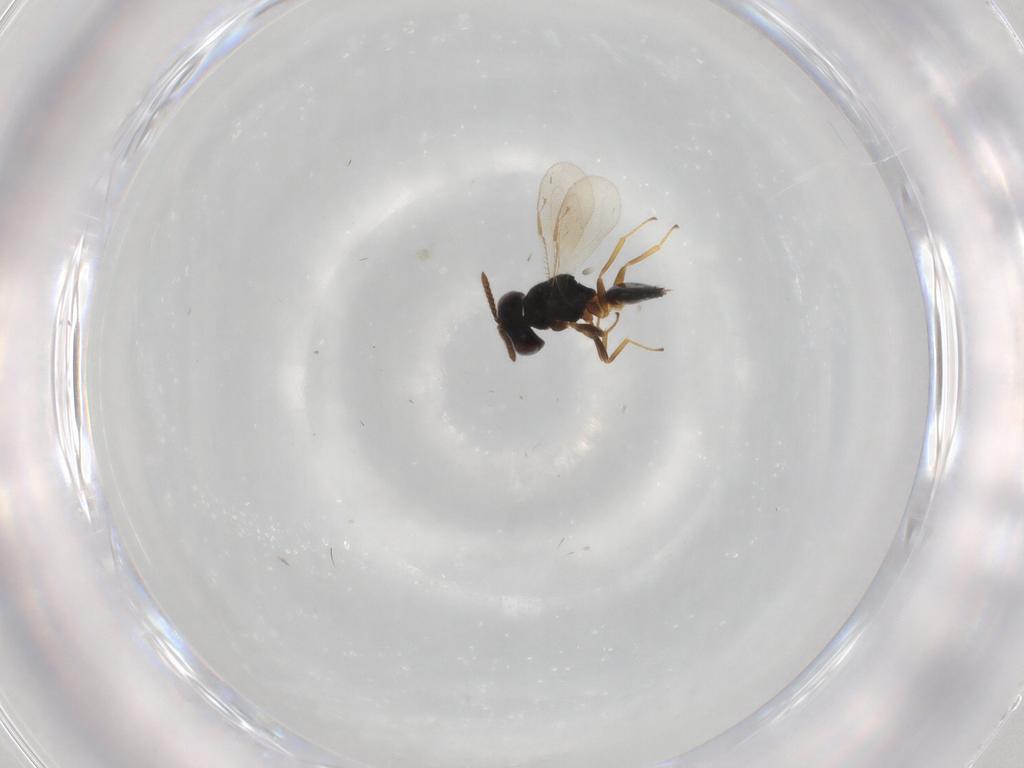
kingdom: Animalia
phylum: Arthropoda
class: Insecta
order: Hymenoptera
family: Pteromalidae
